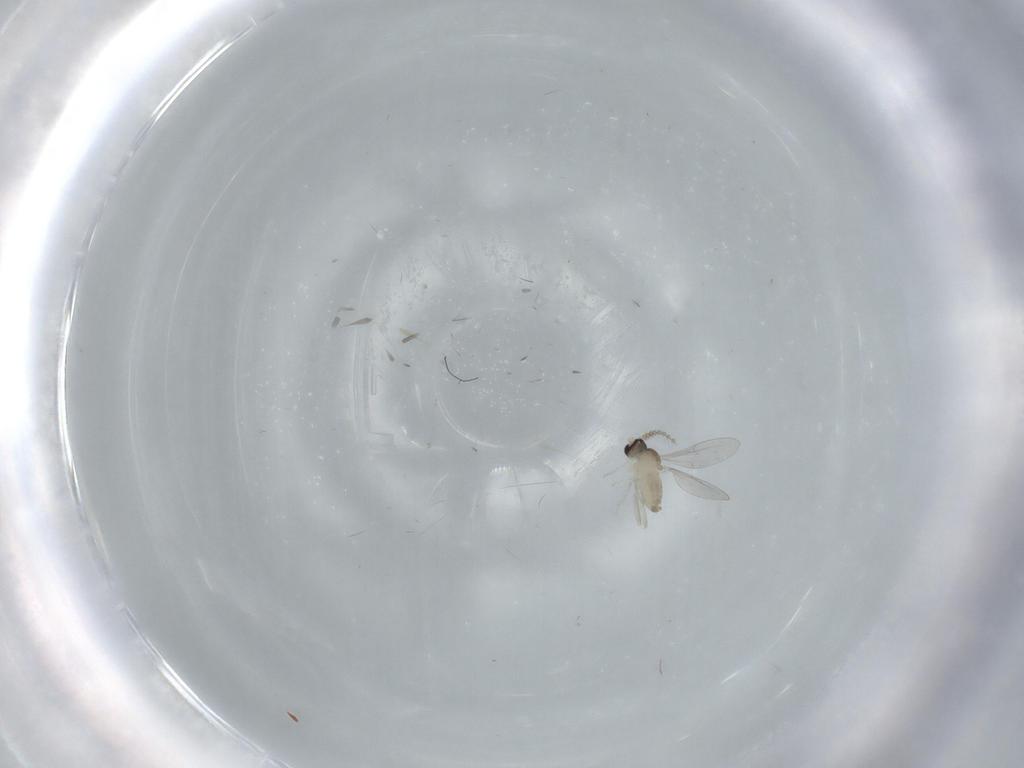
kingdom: Animalia
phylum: Arthropoda
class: Insecta
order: Diptera
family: Cecidomyiidae
